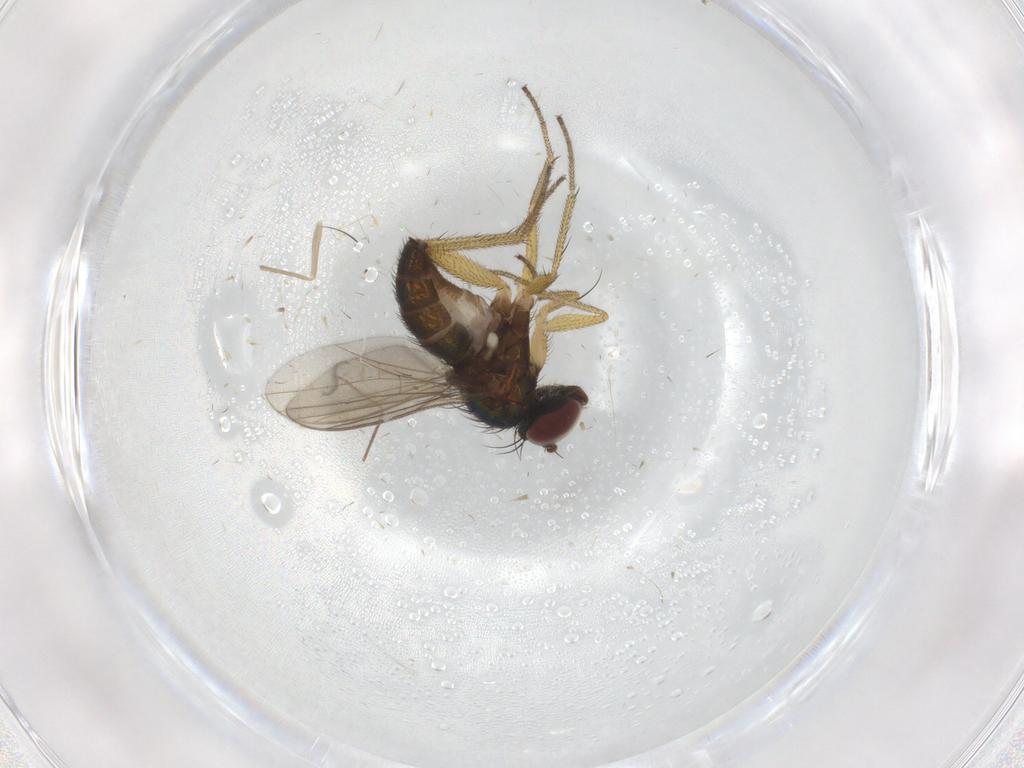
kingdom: Animalia
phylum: Arthropoda
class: Insecta
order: Diptera
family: Dolichopodidae
